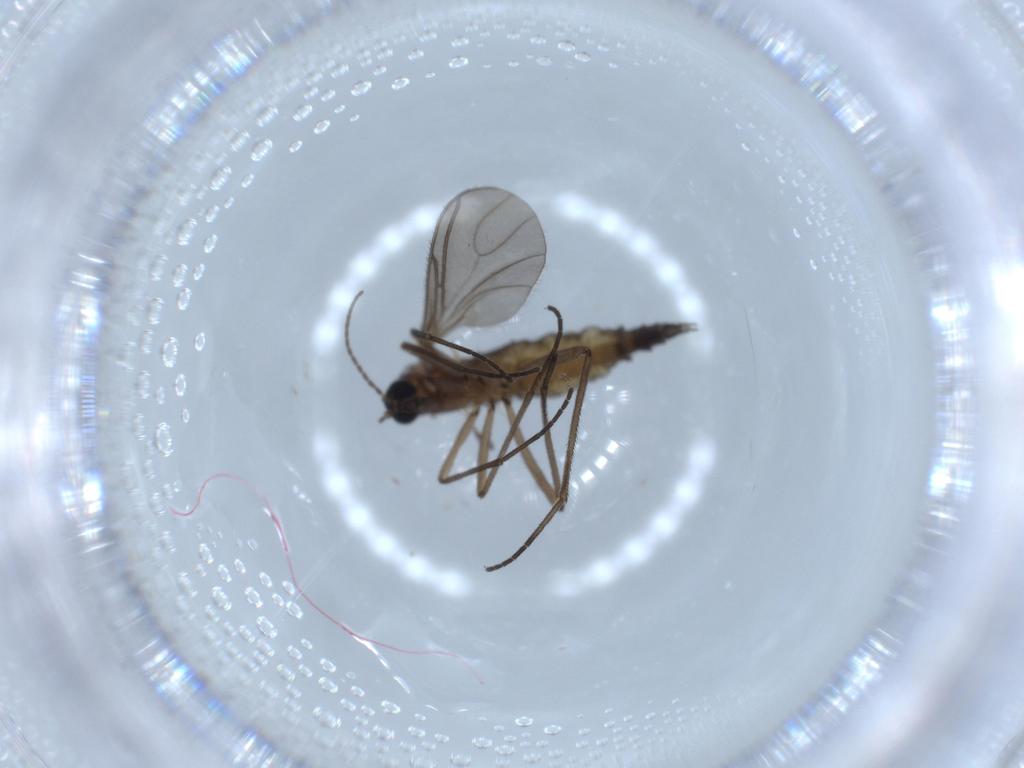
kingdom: Animalia
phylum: Arthropoda
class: Insecta
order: Diptera
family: Sciaridae
